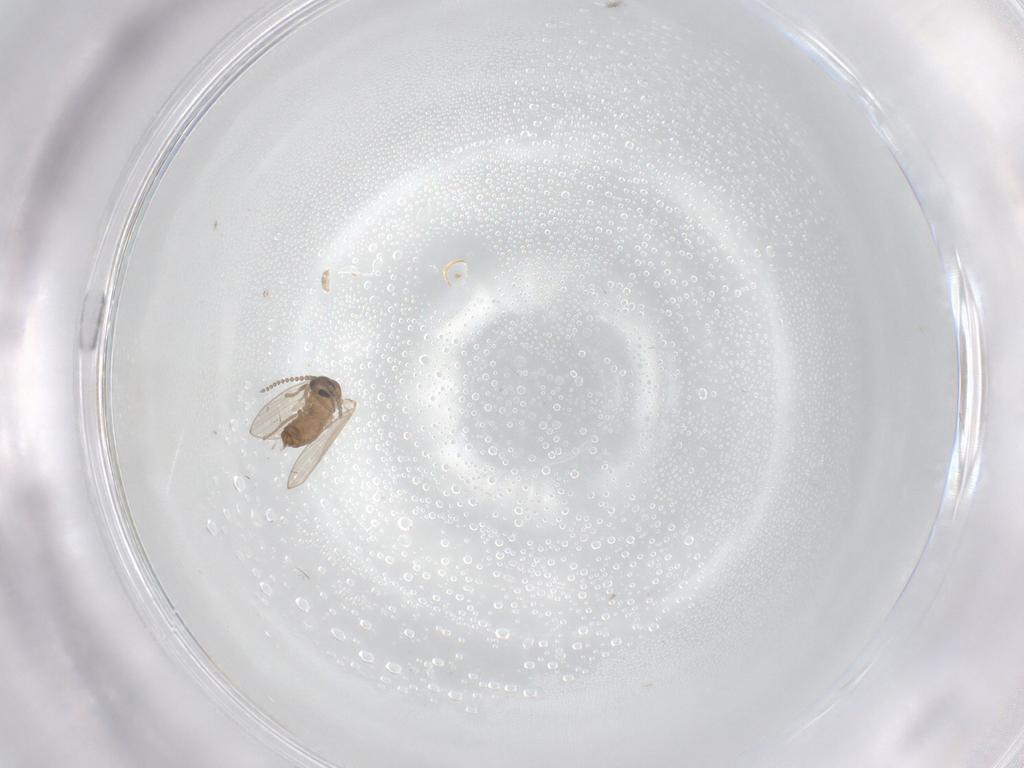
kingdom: Animalia
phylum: Arthropoda
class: Insecta
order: Diptera
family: Psychodidae
